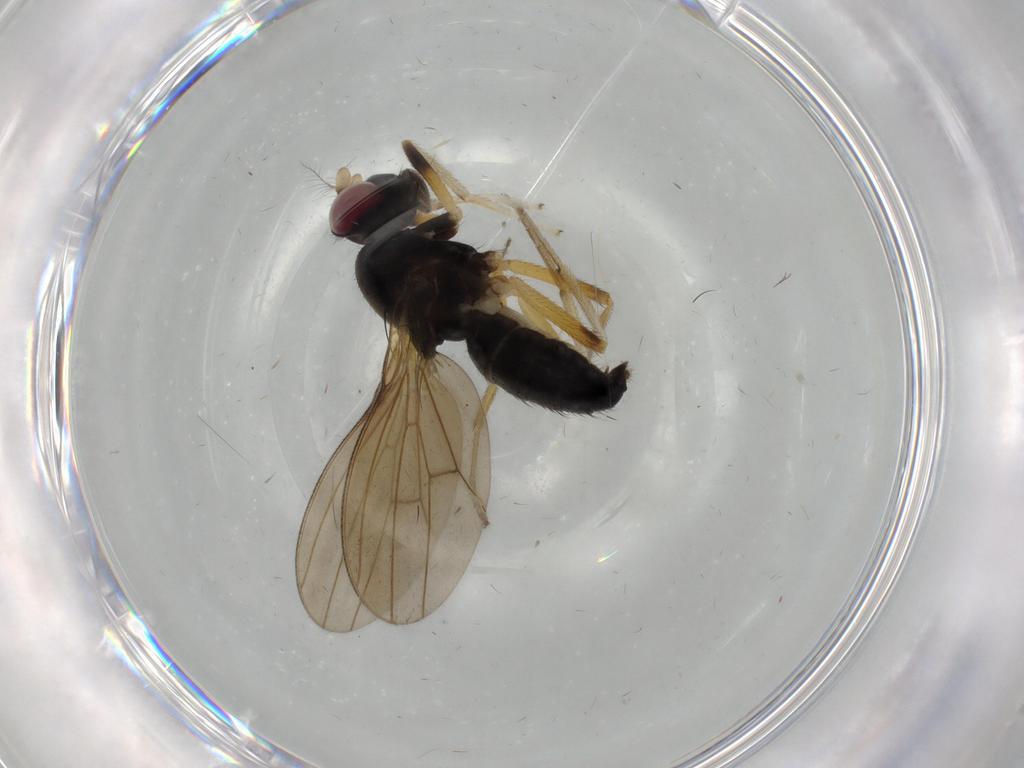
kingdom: Animalia
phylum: Arthropoda
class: Insecta
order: Diptera
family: Lauxaniidae
